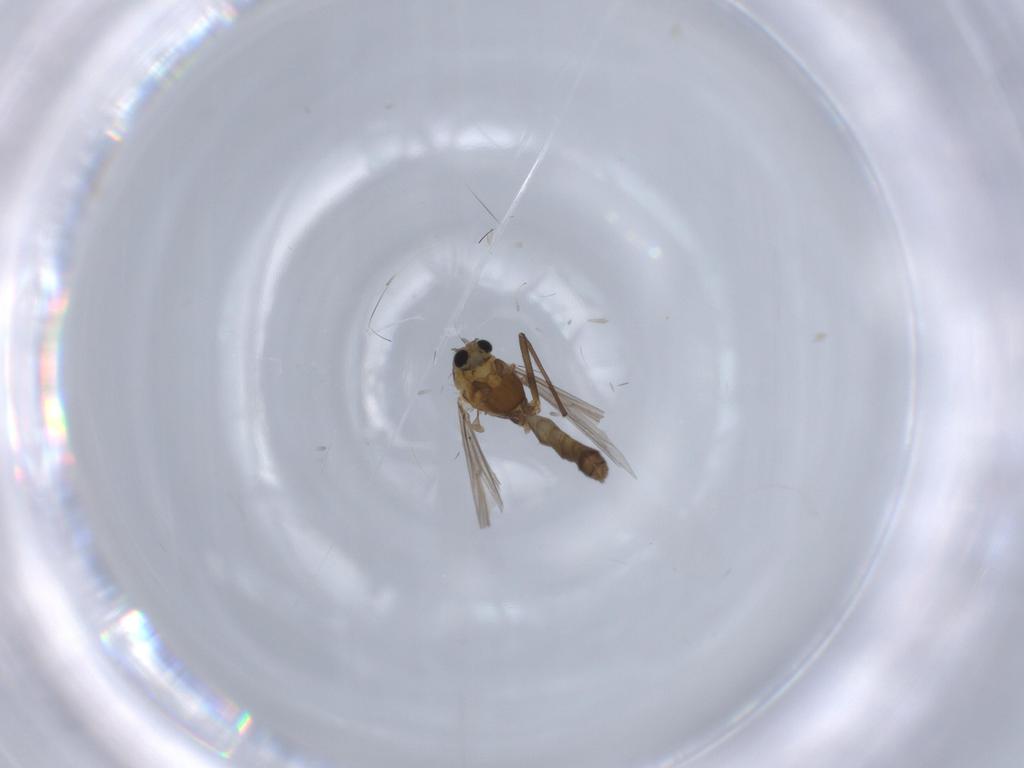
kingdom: Animalia
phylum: Arthropoda
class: Insecta
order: Diptera
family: Chironomidae
